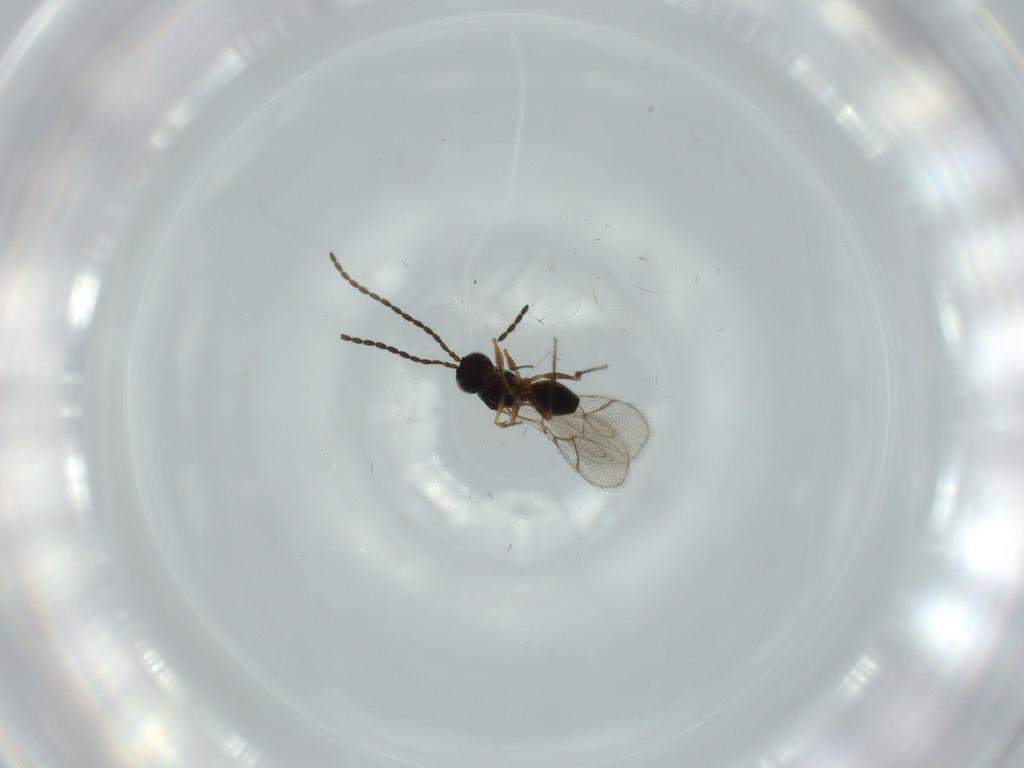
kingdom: Animalia
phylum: Arthropoda
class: Insecta
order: Hymenoptera
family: Figitidae
